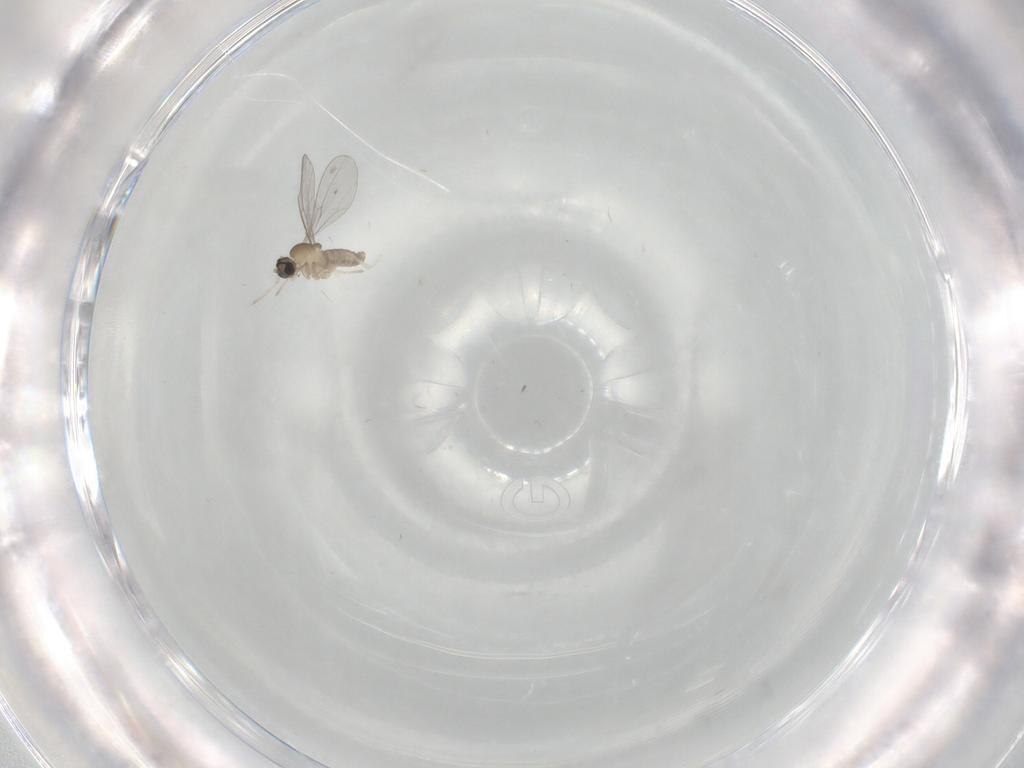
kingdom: Animalia
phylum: Arthropoda
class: Insecta
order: Diptera
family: Cecidomyiidae
